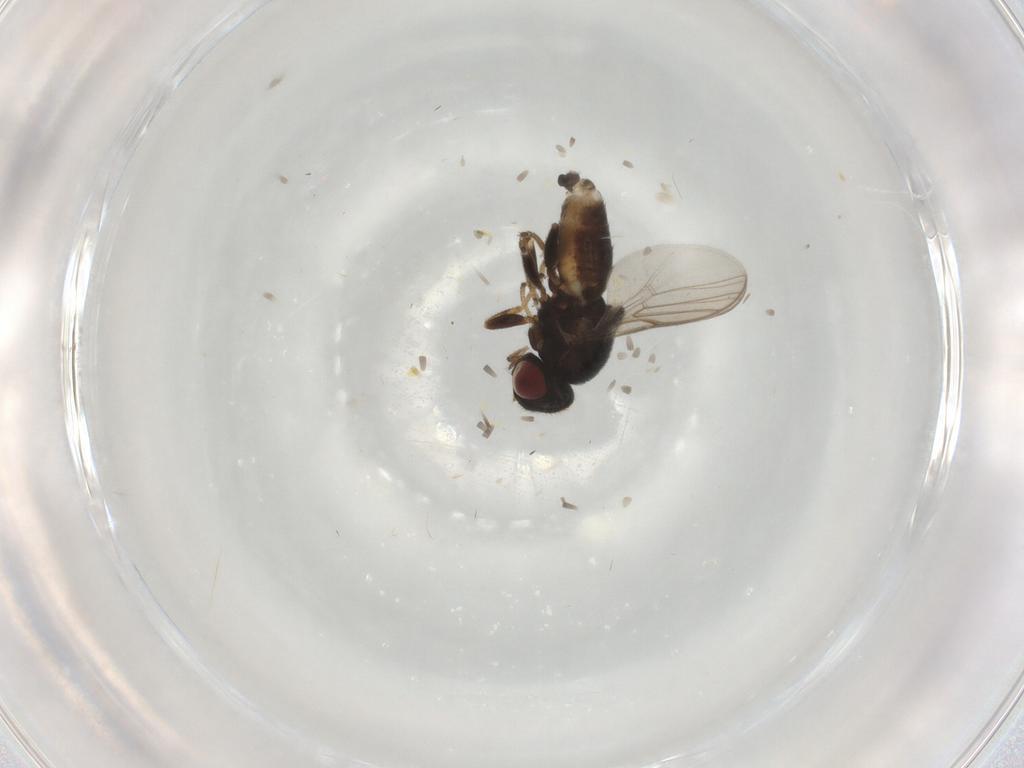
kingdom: Animalia
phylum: Arthropoda
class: Insecta
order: Diptera
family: Chloropidae
